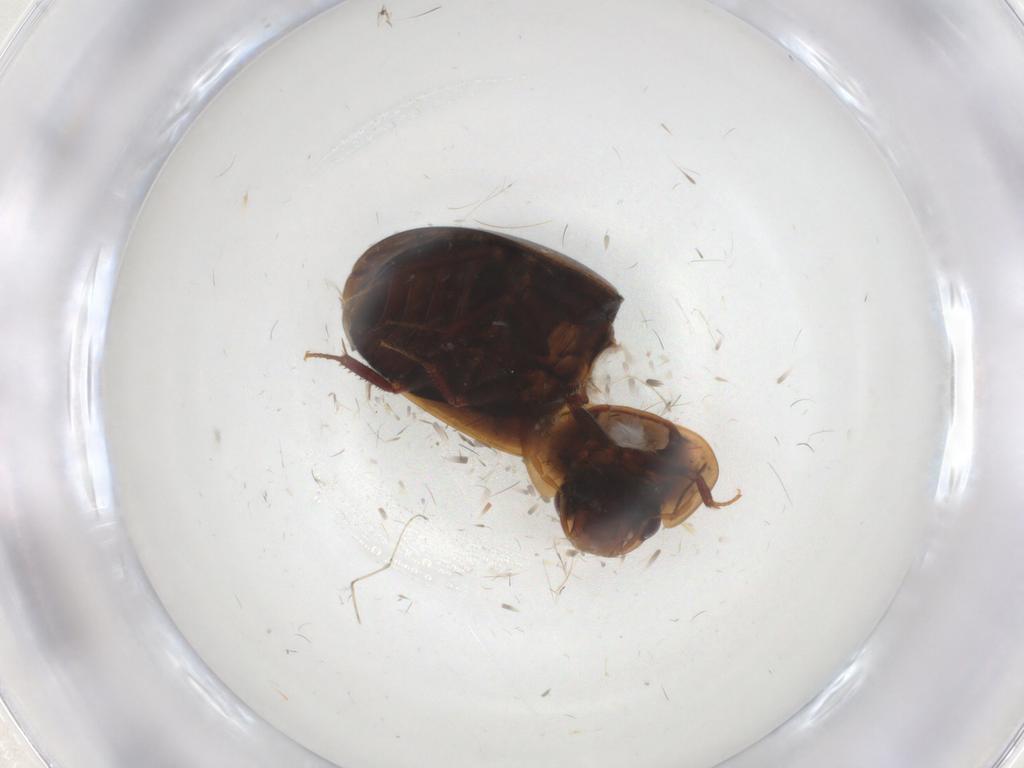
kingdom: Animalia
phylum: Arthropoda
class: Insecta
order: Coleoptera
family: Hydrophilidae
